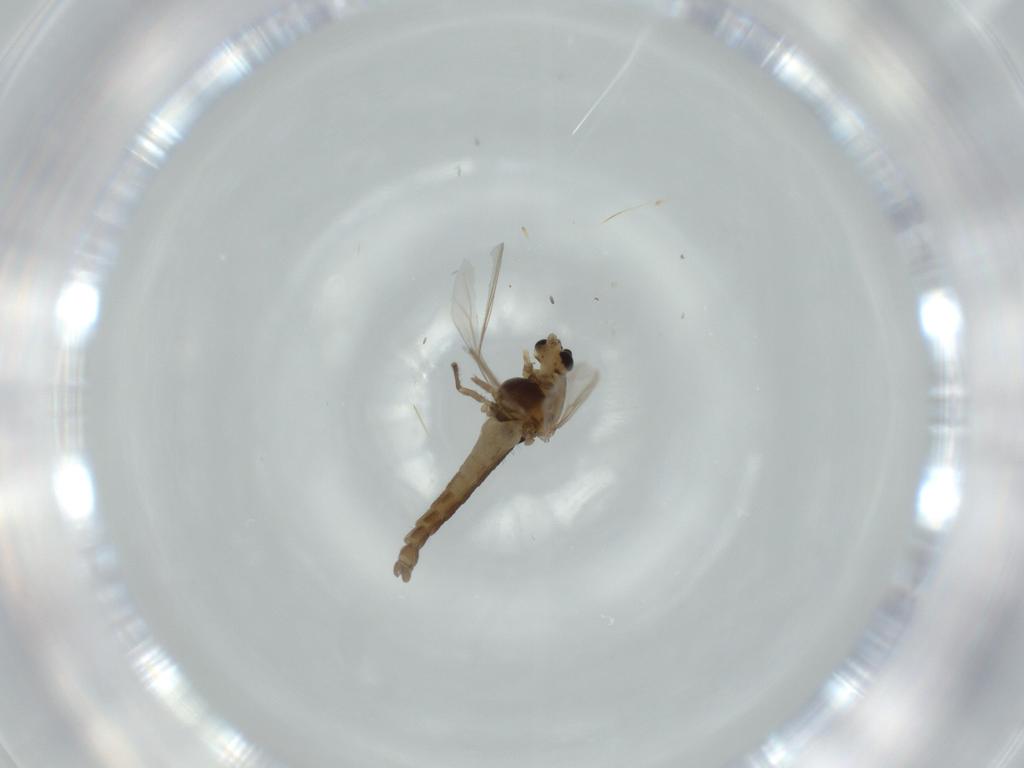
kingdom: Animalia
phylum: Arthropoda
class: Insecta
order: Diptera
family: Chironomidae
